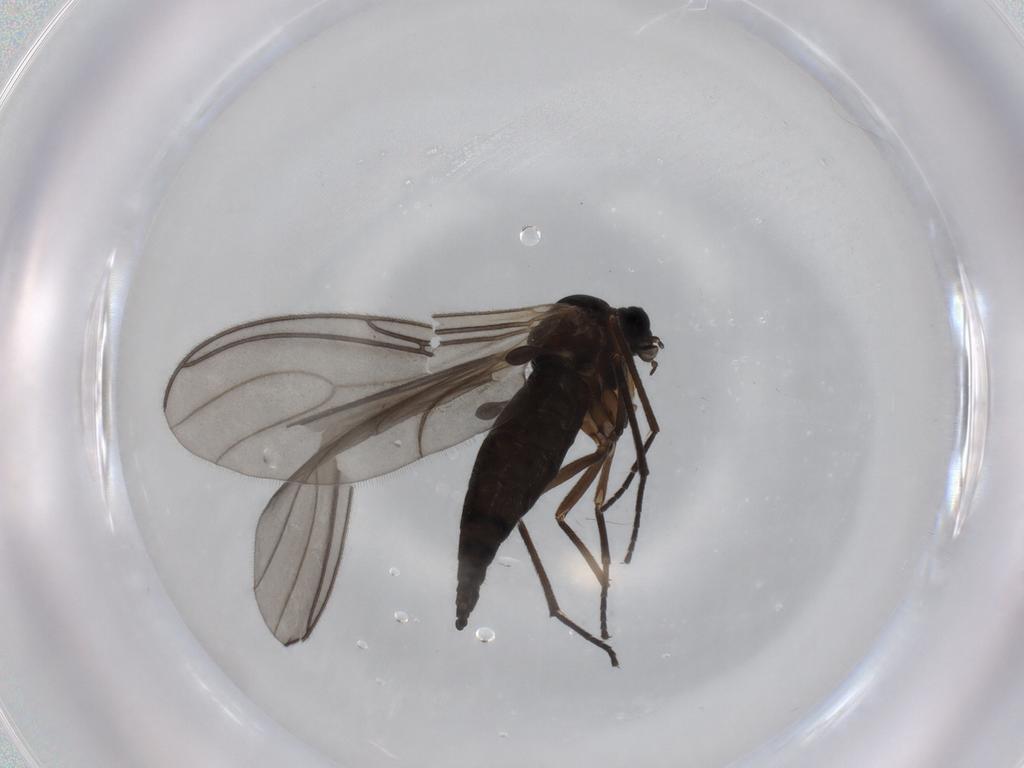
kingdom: Animalia
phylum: Arthropoda
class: Insecta
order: Diptera
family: Sciaridae
